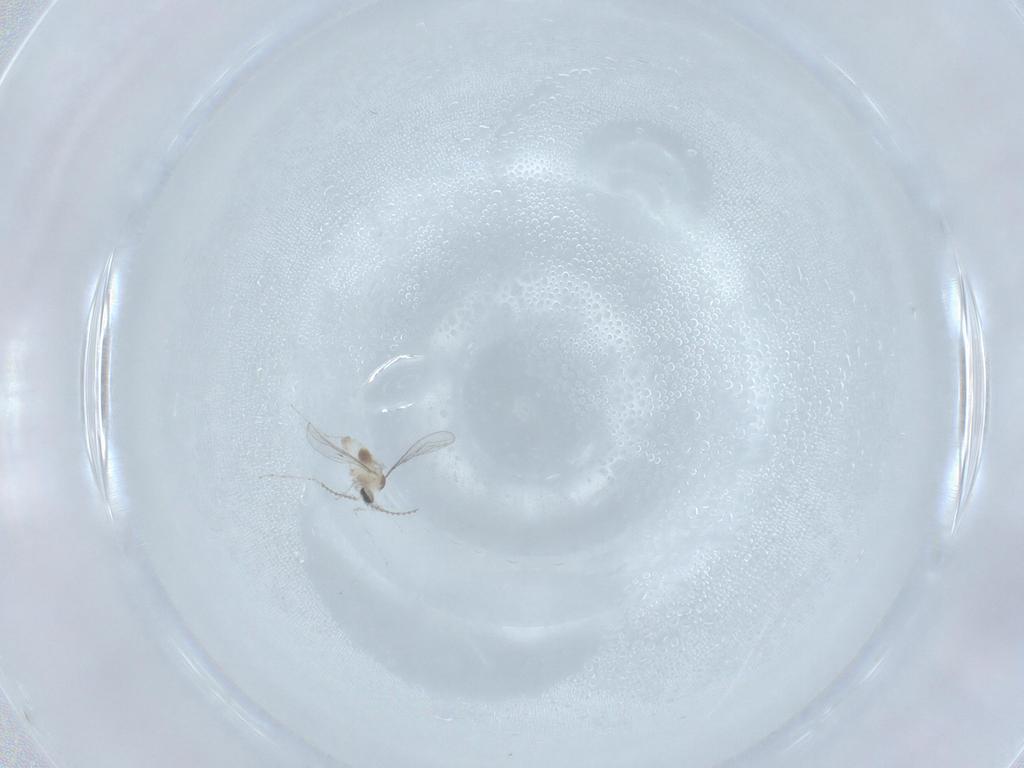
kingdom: Animalia
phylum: Arthropoda
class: Insecta
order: Diptera
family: Cecidomyiidae
